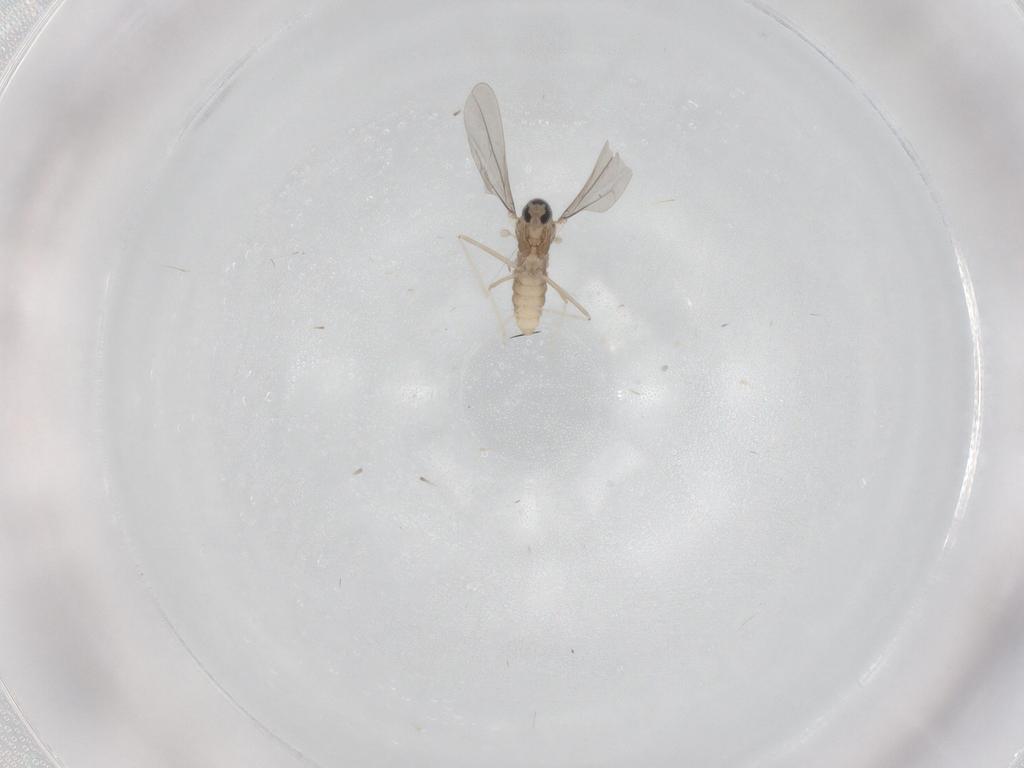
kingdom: Animalia
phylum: Arthropoda
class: Insecta
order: Diptera
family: Cecidomyiidae
